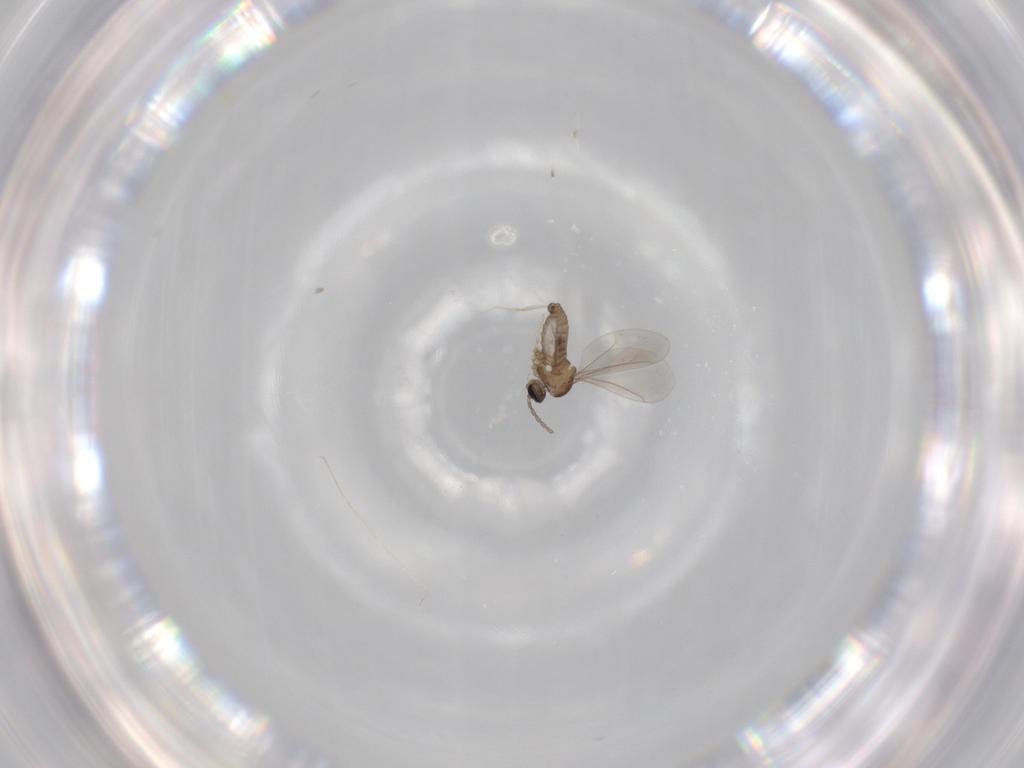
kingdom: Animalia
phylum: Arthropoda
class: Insecta
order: Diptera
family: Cecidomyiidae
